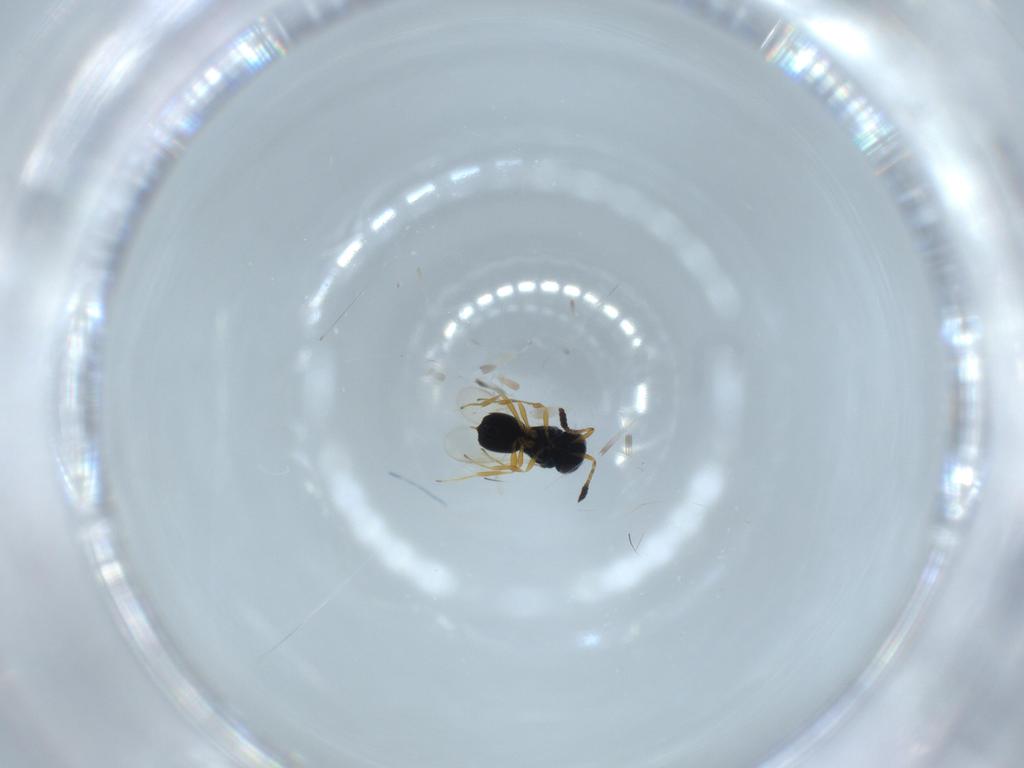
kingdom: Animalia
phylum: Arthropoda
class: Insecta
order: Hymenoptera
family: Scelionidae
